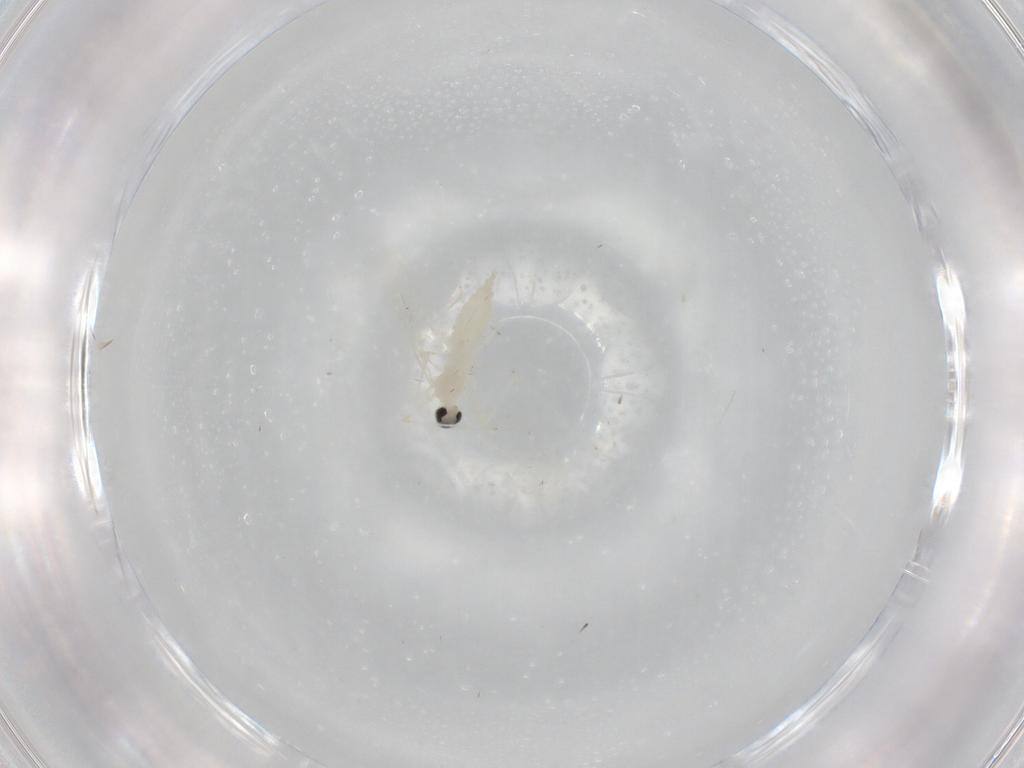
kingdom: Animalia
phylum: Arthropoda
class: Insecta
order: Diptera
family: Cecidomyiidae
